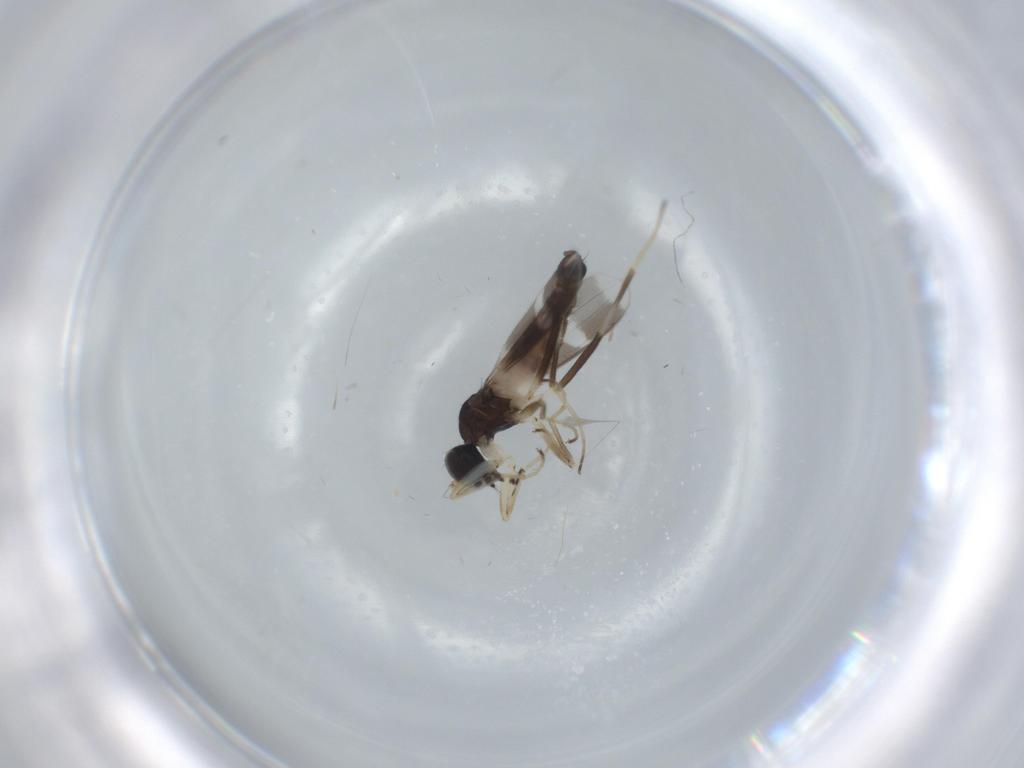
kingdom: Animalia
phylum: Arthropoda
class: Insecta
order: Diptera
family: Hybotidae
